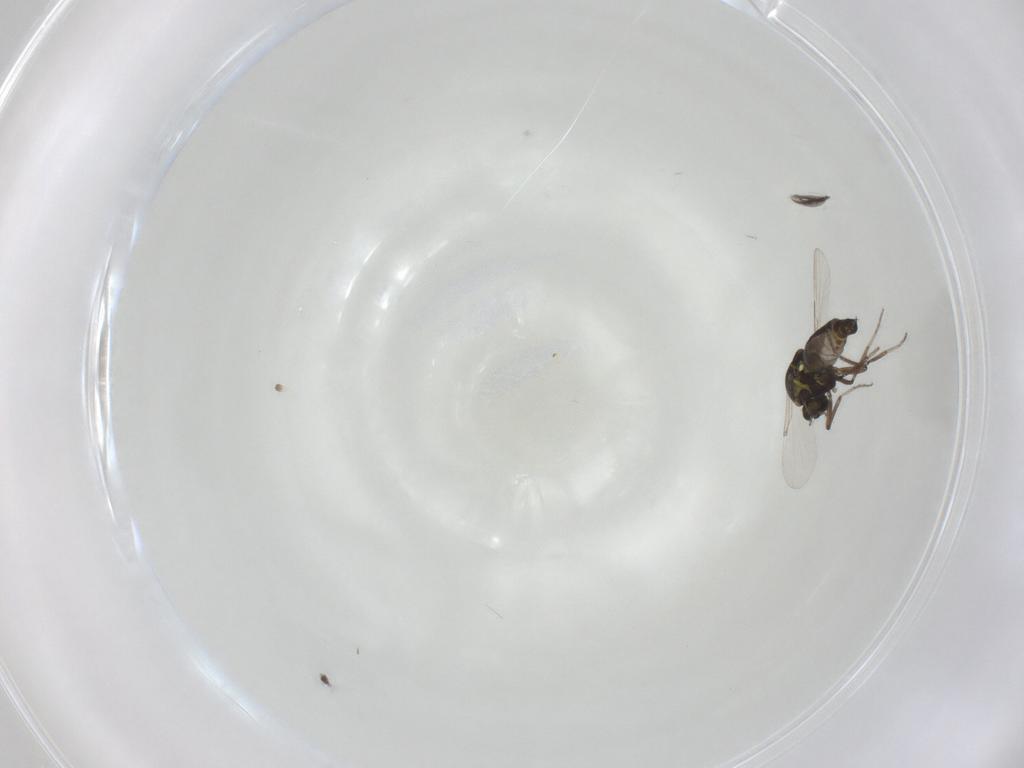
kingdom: Animalia
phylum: Arthropoda
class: Insecta
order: Diptera
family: Ceratopogonidae
